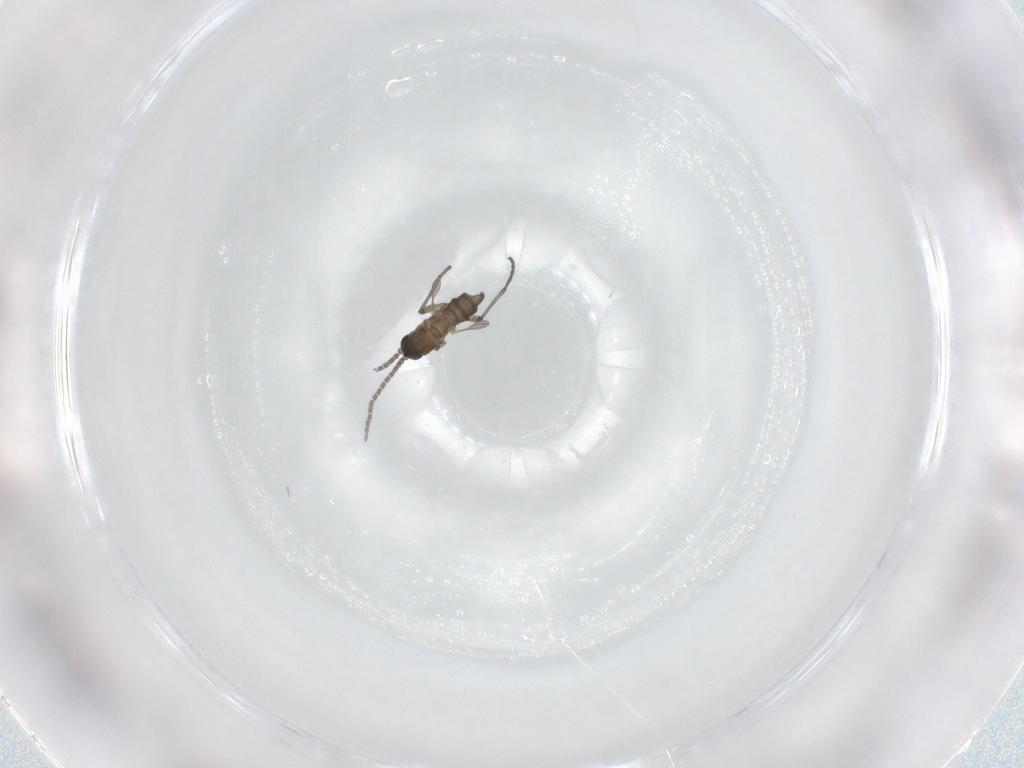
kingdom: Animalia
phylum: Arthropoda
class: Insecta
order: Diptera
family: Sciaridae
